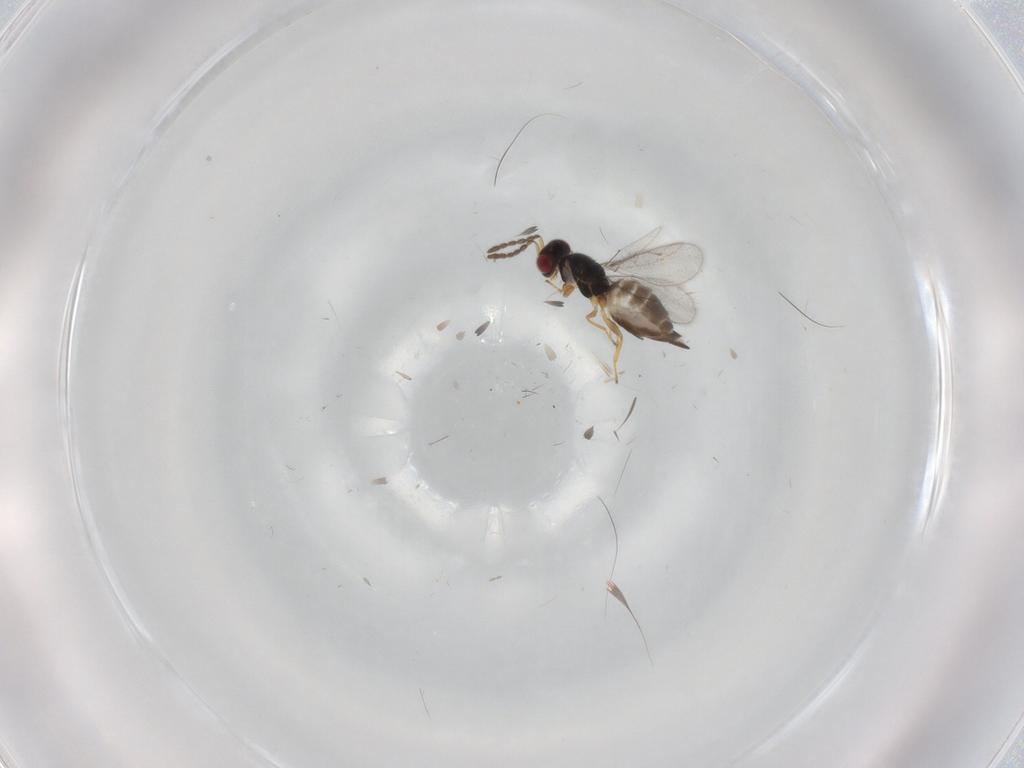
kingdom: Animalia
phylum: Arthropoda
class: Insecta
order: Hymenoptera
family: Eulophidae
